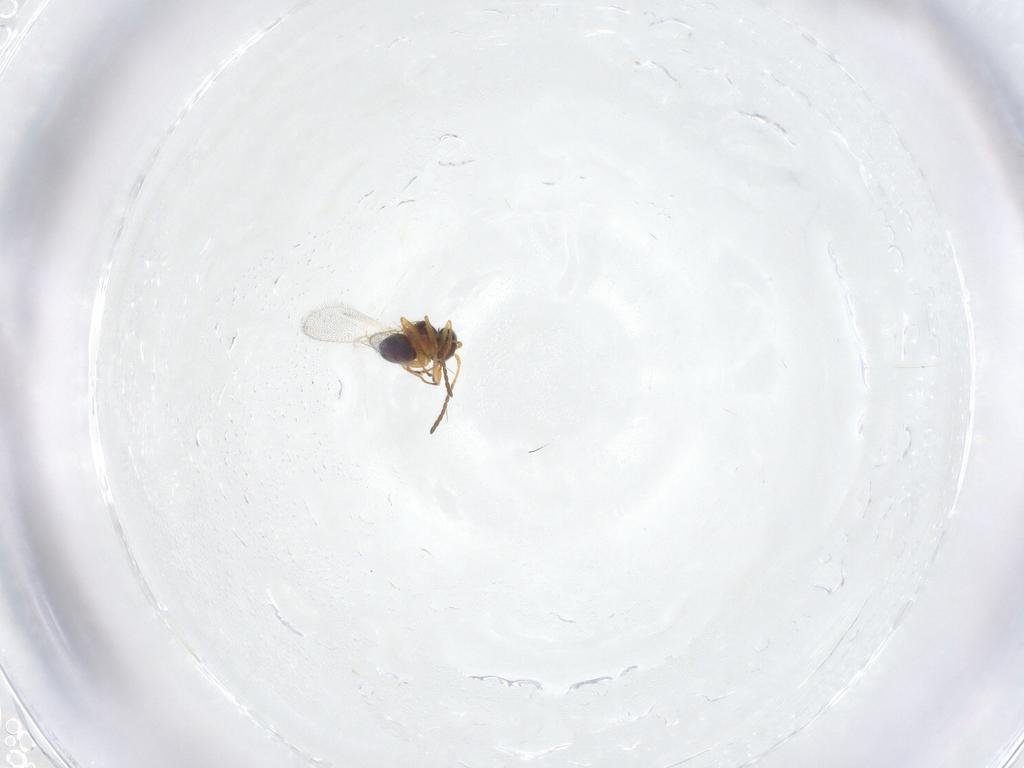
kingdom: Animalia
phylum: Arthropoda
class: Insecta
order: Hymenoptera
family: Figitidae
